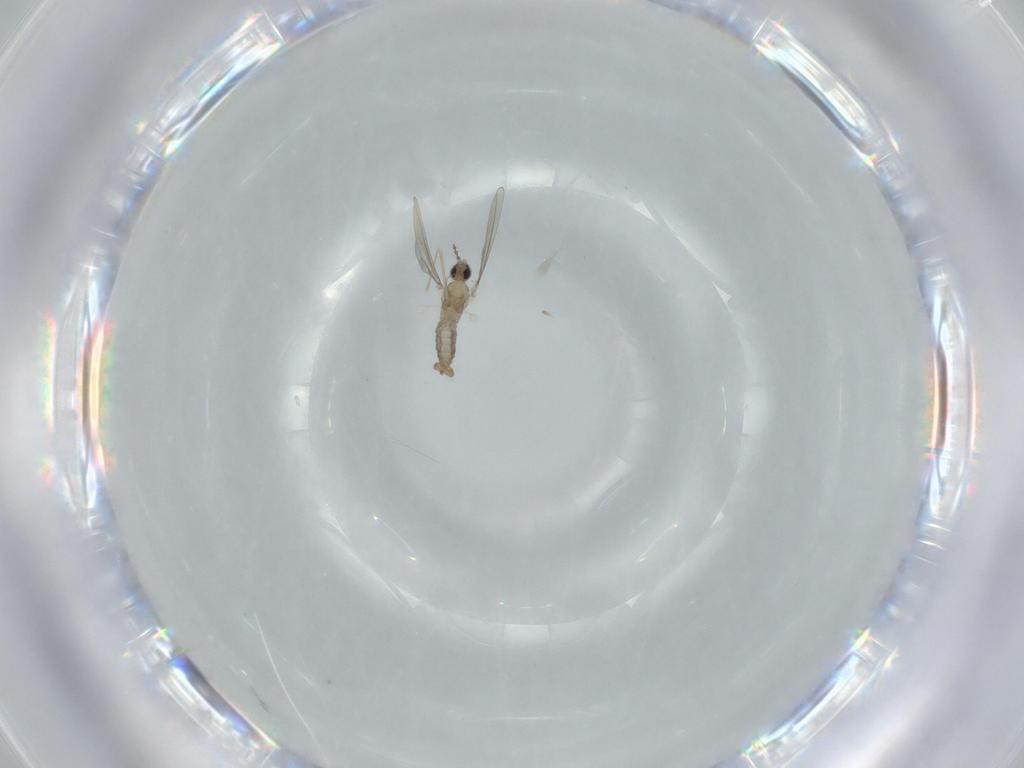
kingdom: Animalia
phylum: Arthropoda
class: Insecta
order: Diptera
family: Cecidomyiidae
